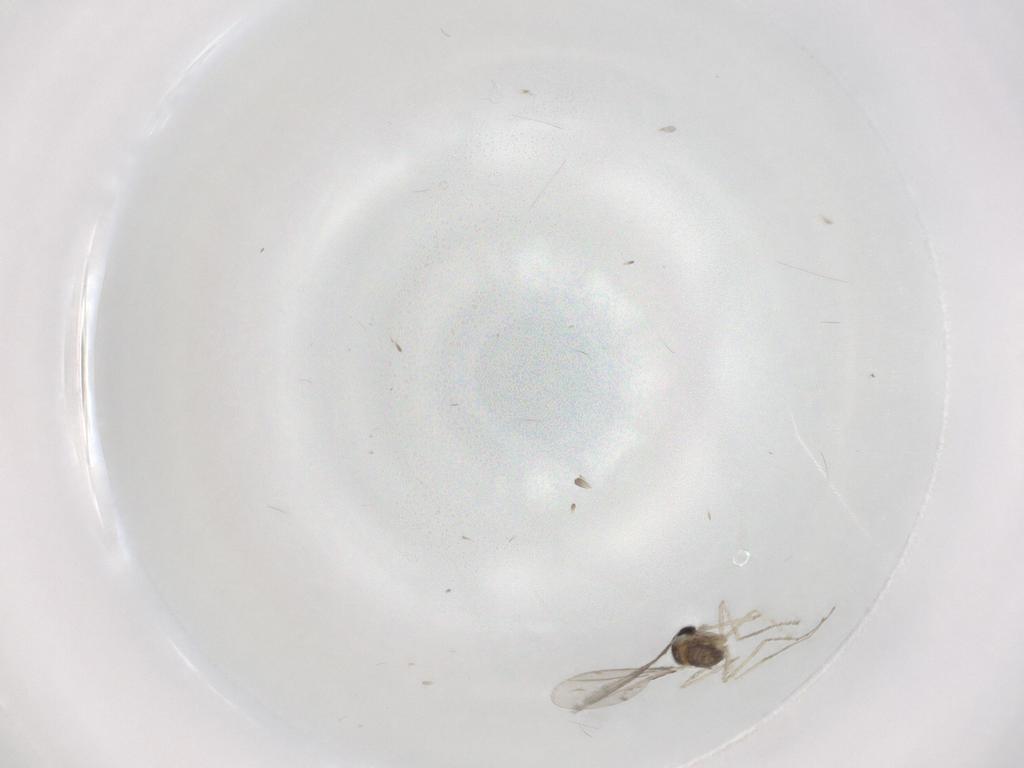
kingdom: Animalia
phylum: Arthropoda
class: Insecta
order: Diptera
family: Cecidomyiidae
